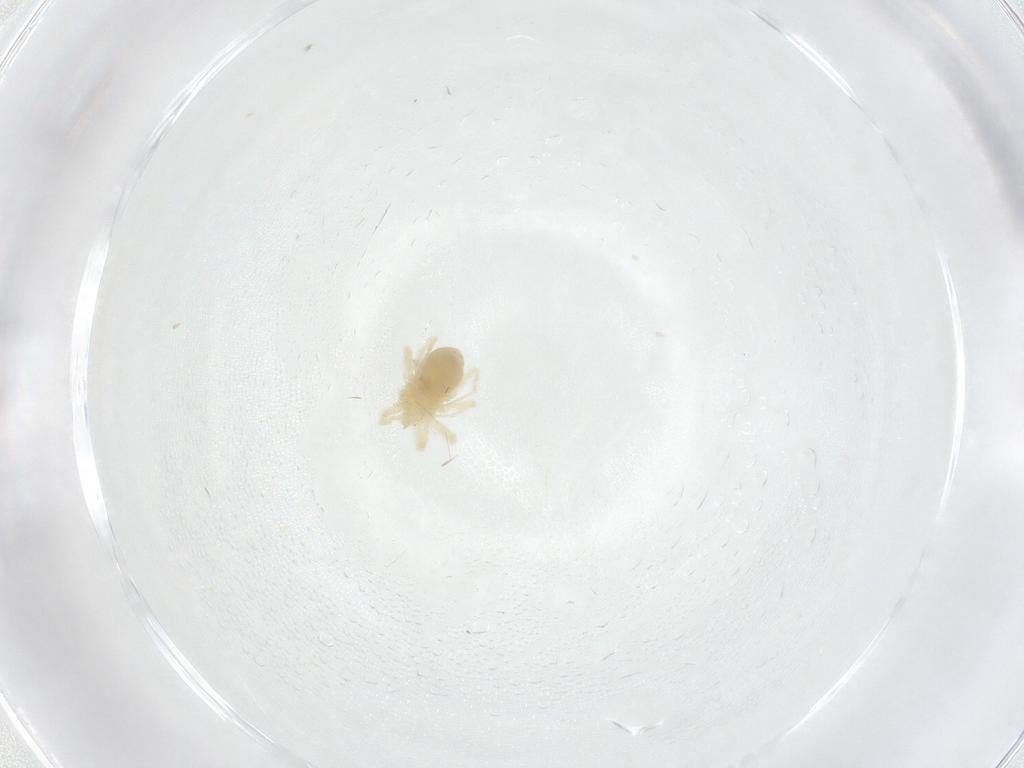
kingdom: Animalia
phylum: Arthropoda
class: Arachnida
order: Trombidiformes
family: Anystidae
